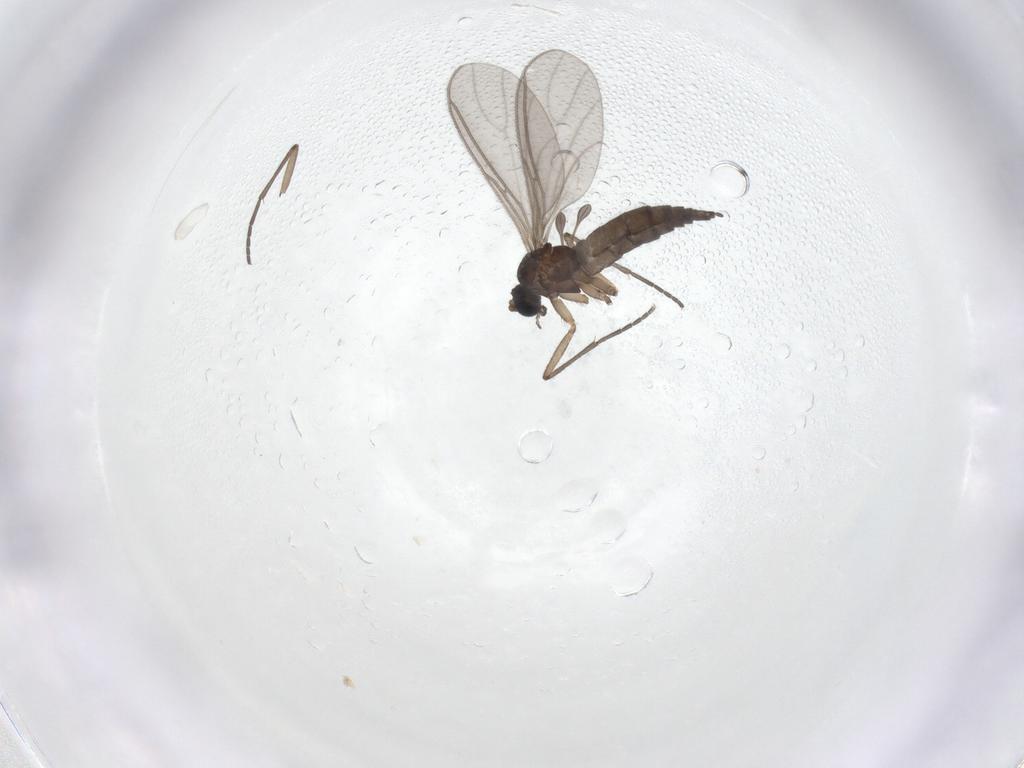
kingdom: Animalia
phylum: Arthropoda
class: Insecta
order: Diptera
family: Sciaridae
